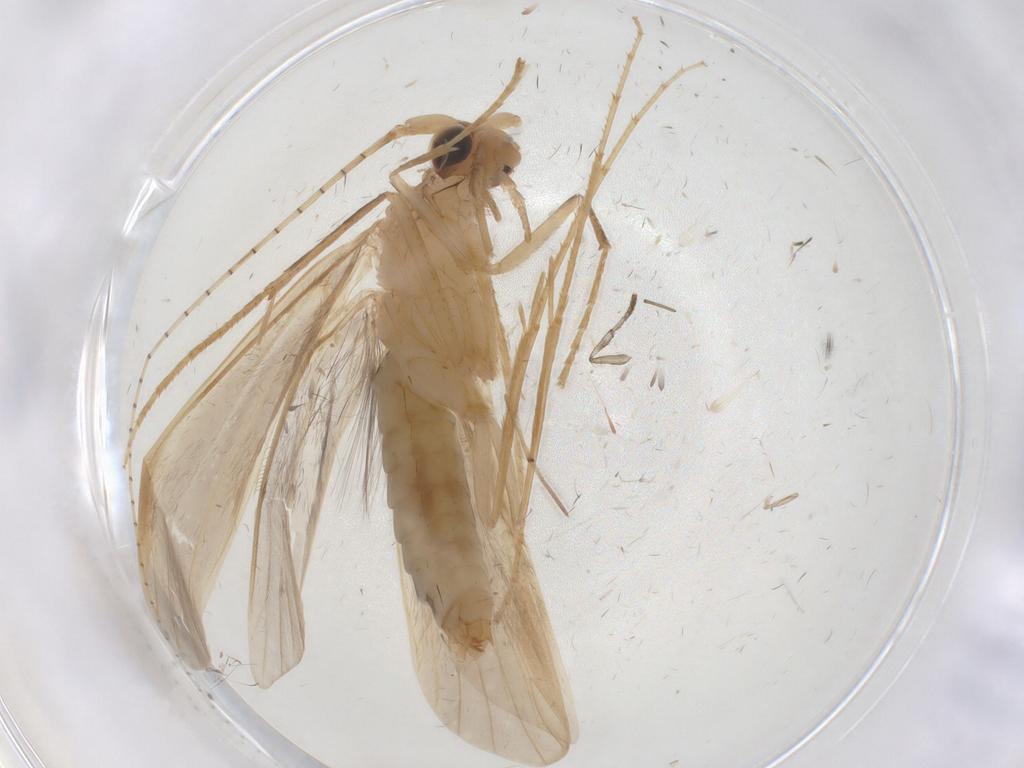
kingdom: Animalia
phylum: Arthropoda
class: Insecta
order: Trichoptera
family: Leptoceridae
